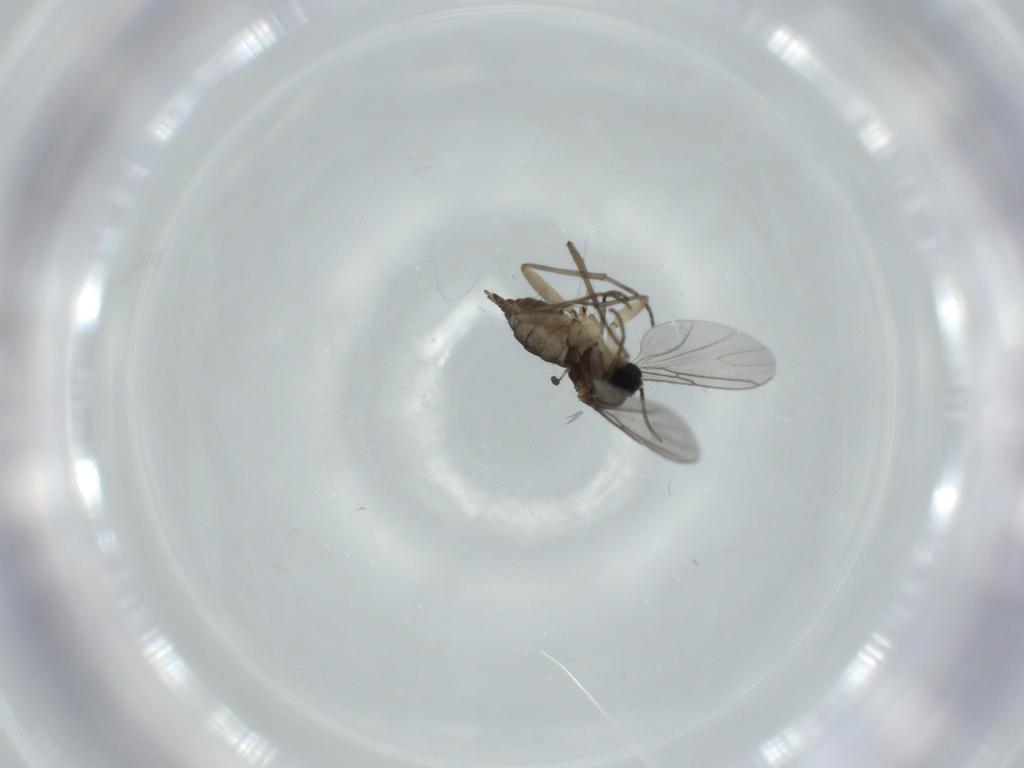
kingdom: Animalia
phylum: Arthropoda
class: Insecta
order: Diptera
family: Sciaridae
